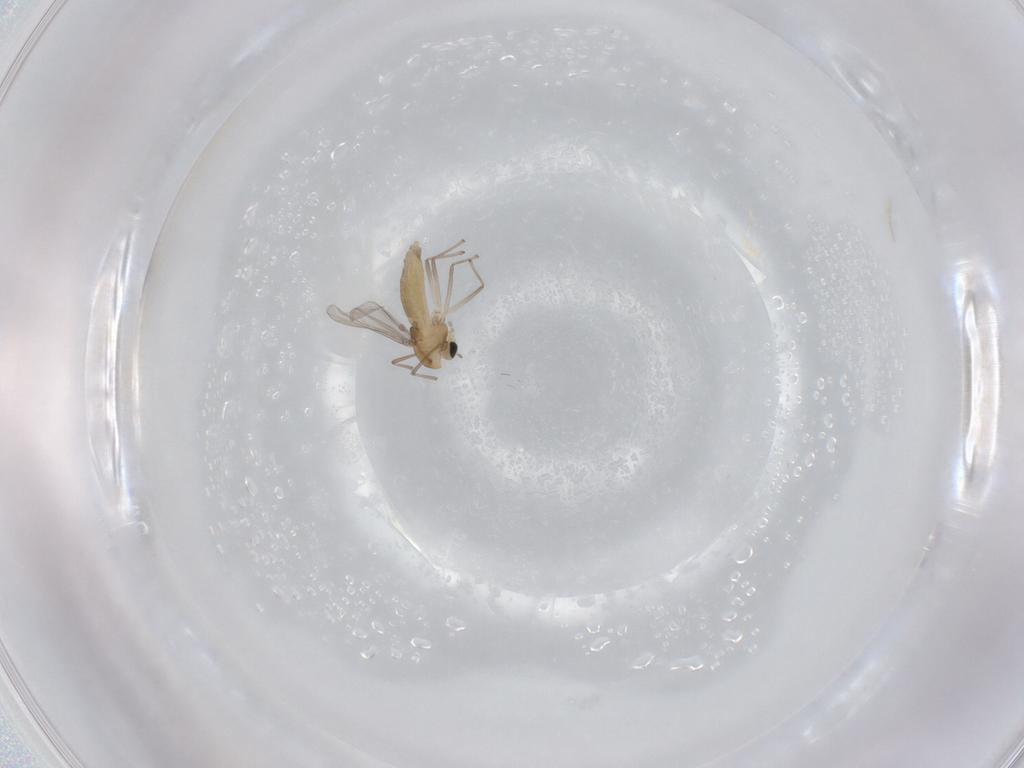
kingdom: Animalia
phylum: Arthropoda
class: Insecta
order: Diptera
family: Chironomidae
